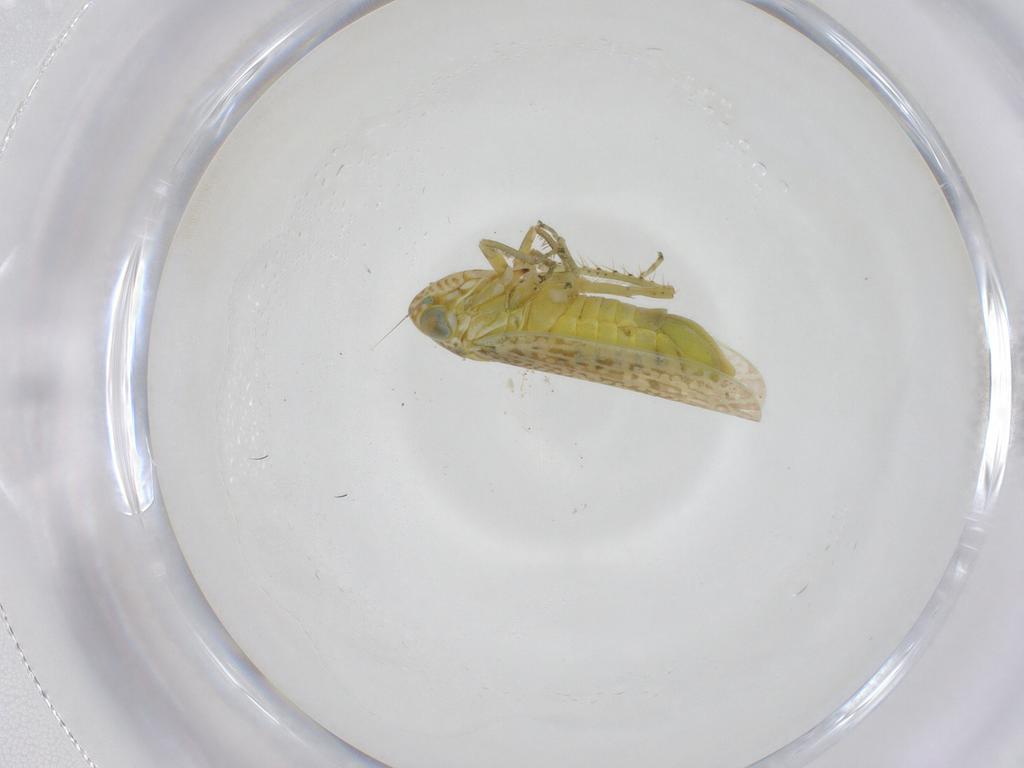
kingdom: Animalia
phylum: Arthropoda
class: Insecta
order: Hemiptera
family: Cicadellidae
